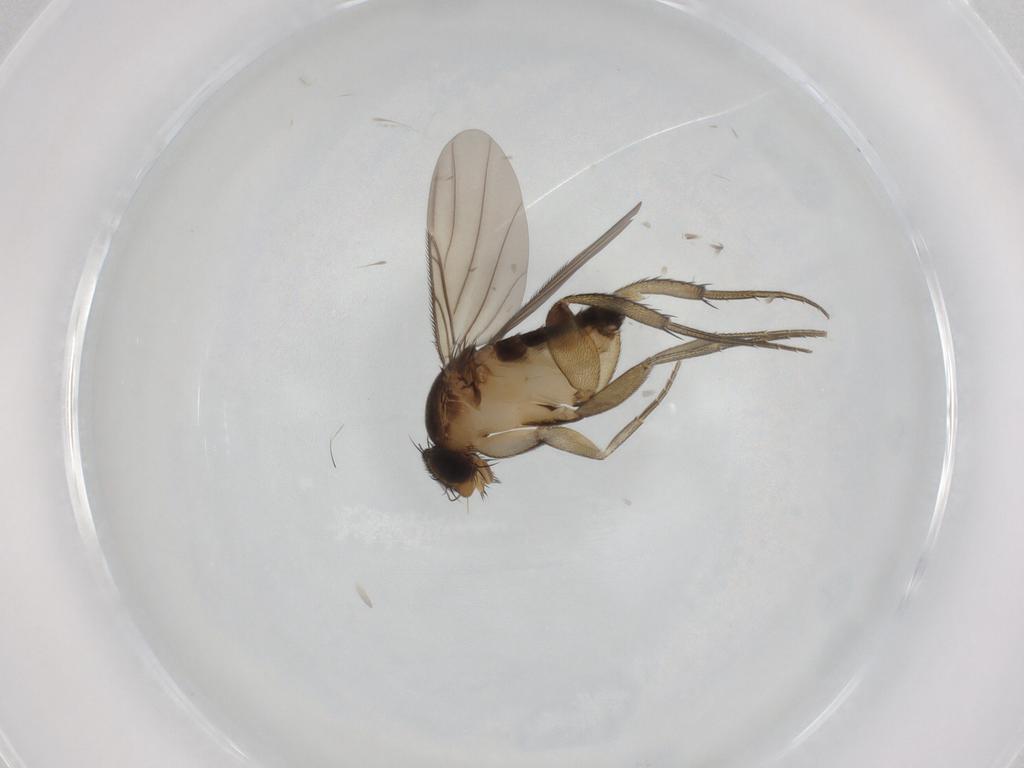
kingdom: Animalia
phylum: Arthropoda
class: Insecta
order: Diptera
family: Phoridae
